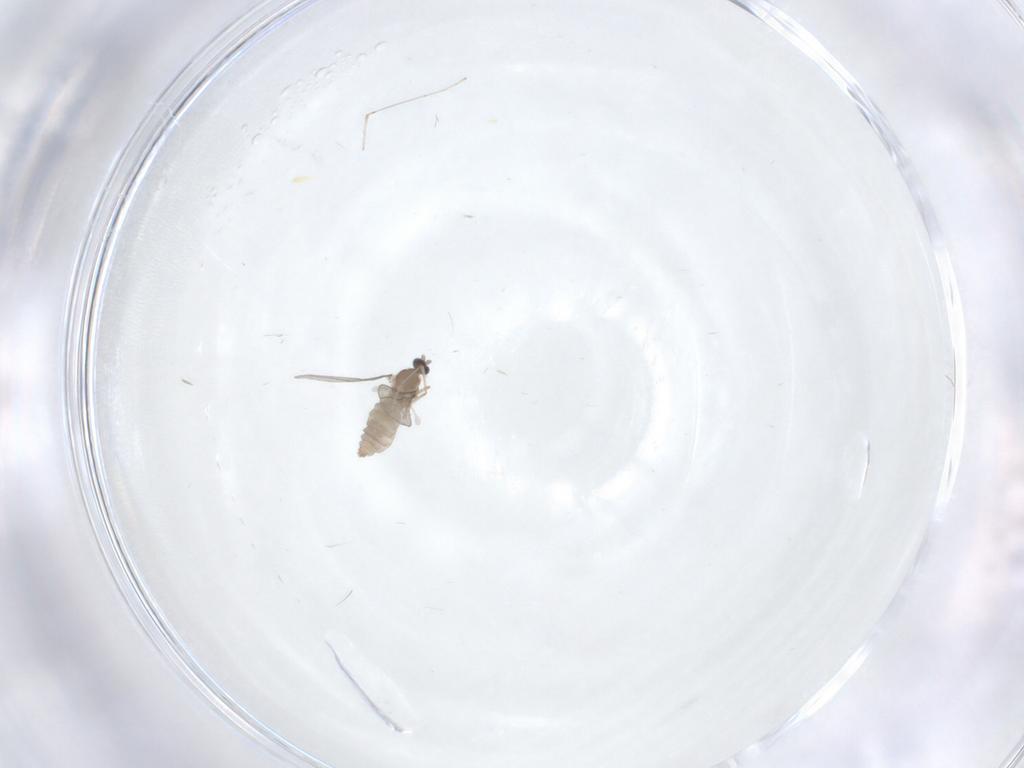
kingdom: Animalia
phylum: Arthropoda
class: Insecta
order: Diptera
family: Cecidomyiidae
